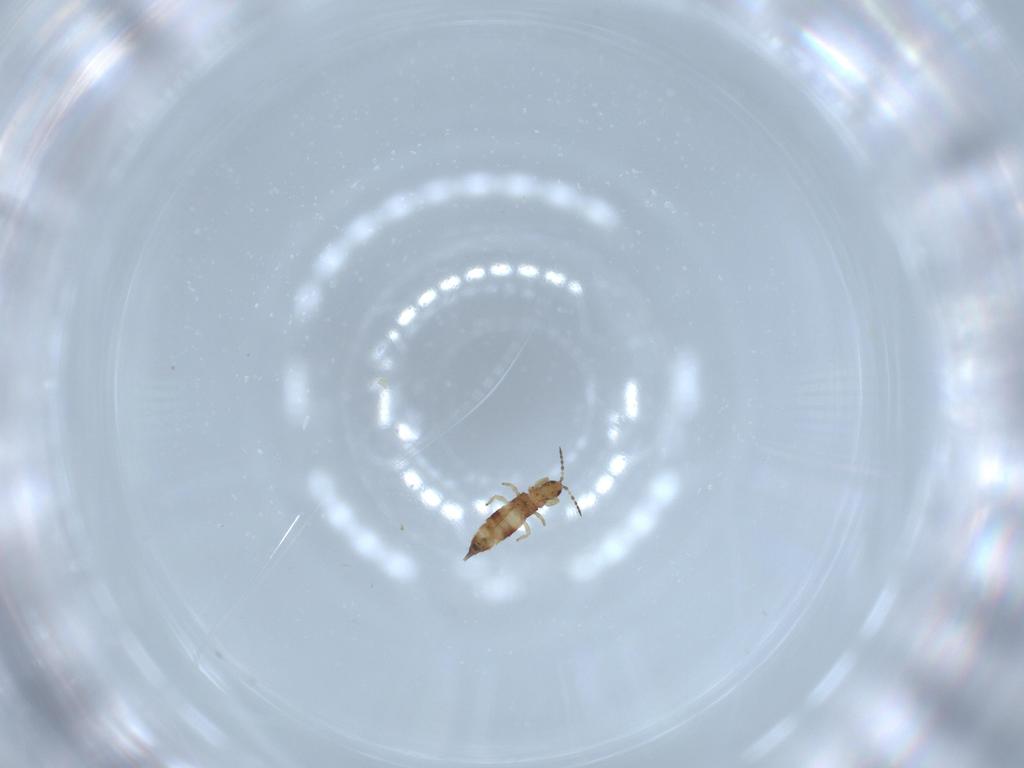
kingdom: Animalia
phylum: Arthropoda
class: Insecta
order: Thysanoptera
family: Phlaeothripidae
